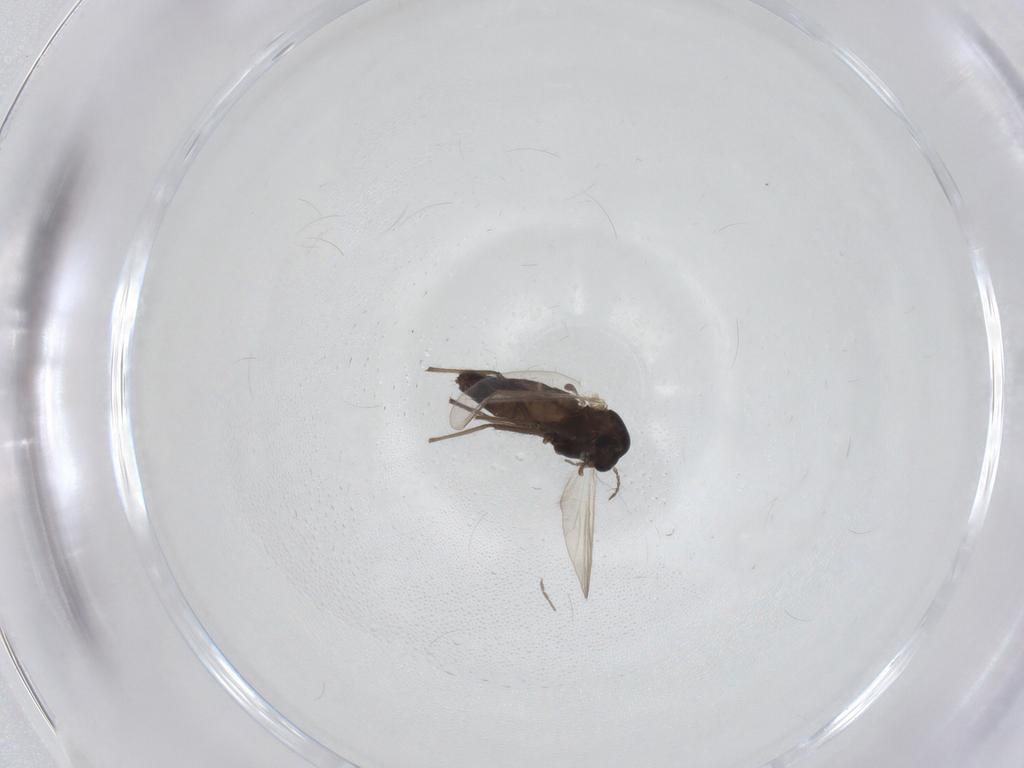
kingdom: Animalia
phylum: Arthropoda
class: Insecta
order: Diptera
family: Chironomidae
